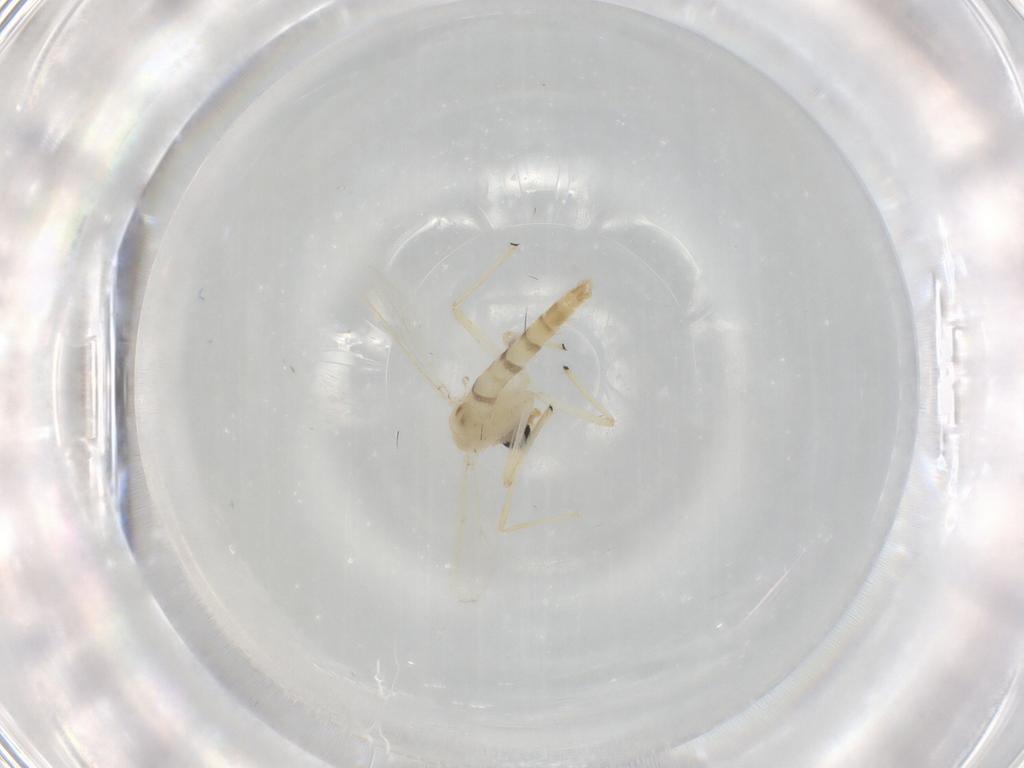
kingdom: Animalia
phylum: Arthropoda
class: Insecta
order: Diptera
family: Chironomidae
